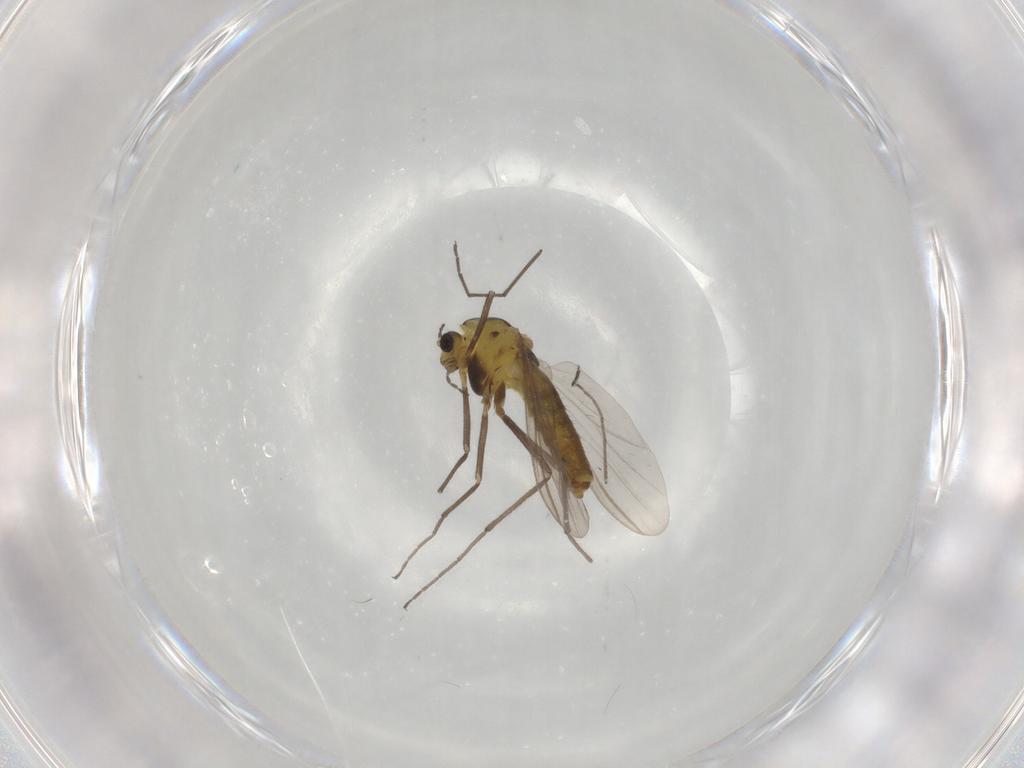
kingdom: Animalia
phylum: Arthropoda
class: Insecta
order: Diptera
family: Chironomidae
